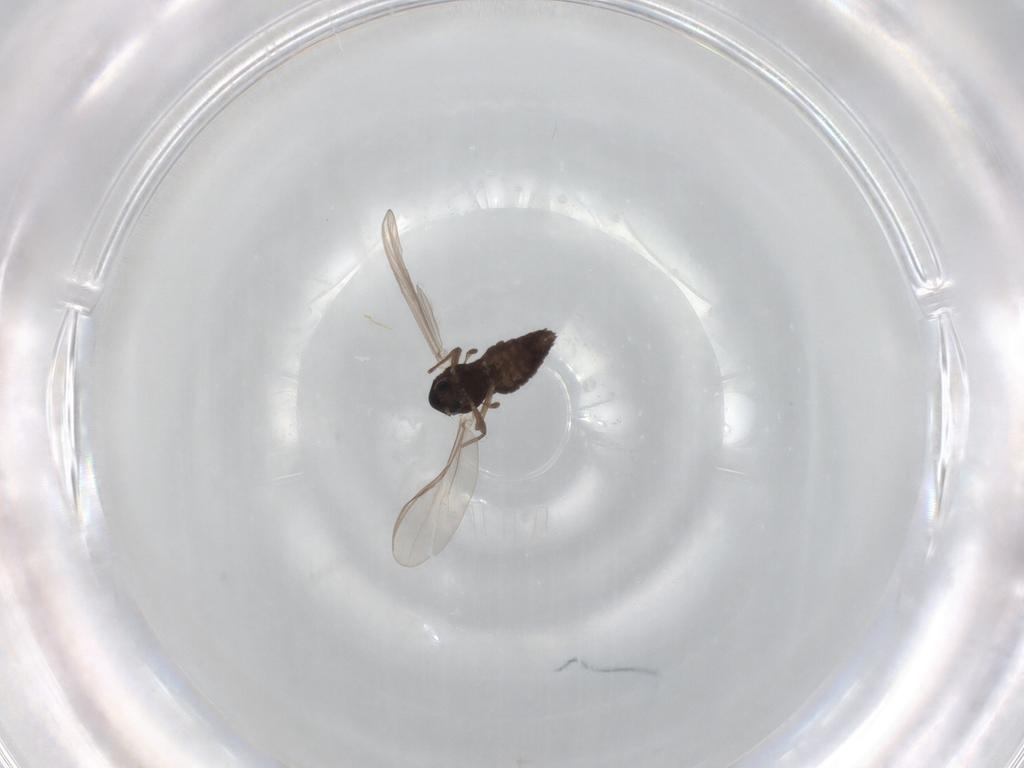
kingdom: Animalia
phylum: Arthropoda
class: Insecta
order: Diptera
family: Chironomidae
